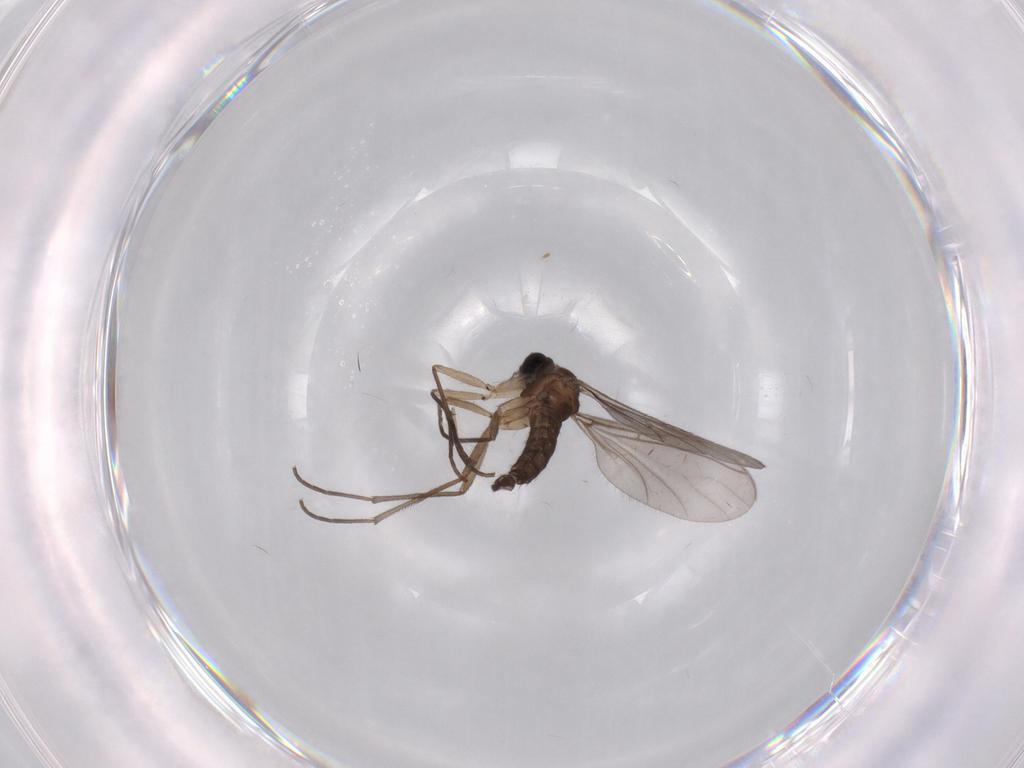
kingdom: Animalia
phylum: Arthropoda
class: Insecta
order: Diptera
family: Sciaridae
